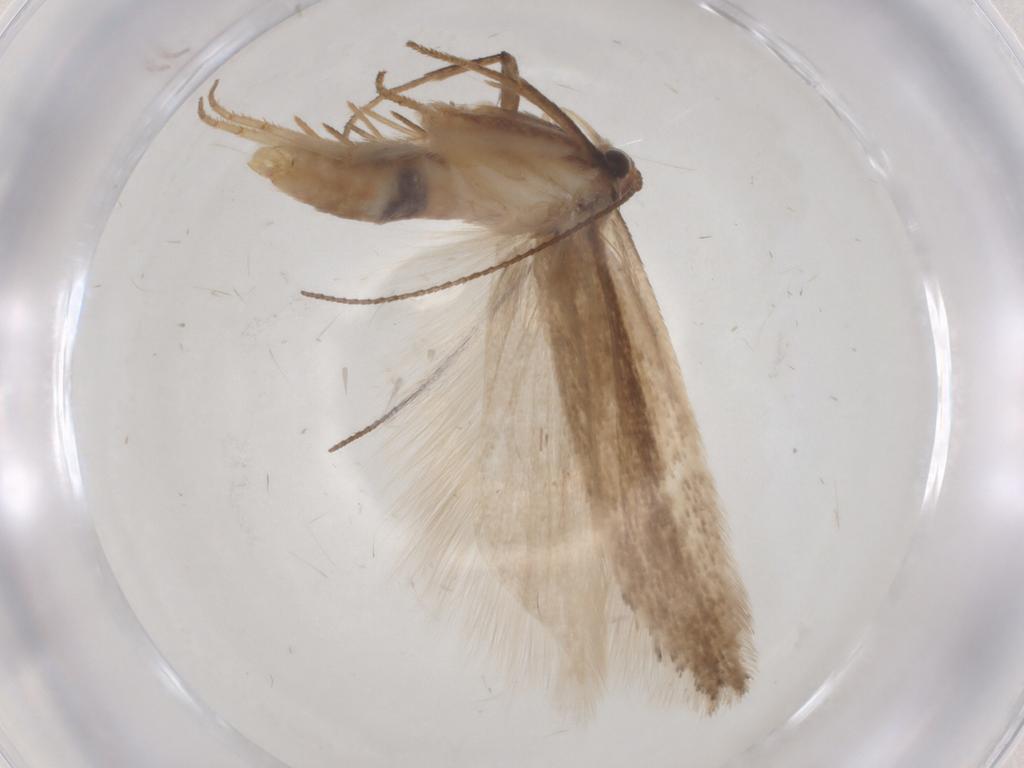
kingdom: Animalia
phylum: Arthropoda
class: Insecta
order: Lepidoptera
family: Gelechiidae
